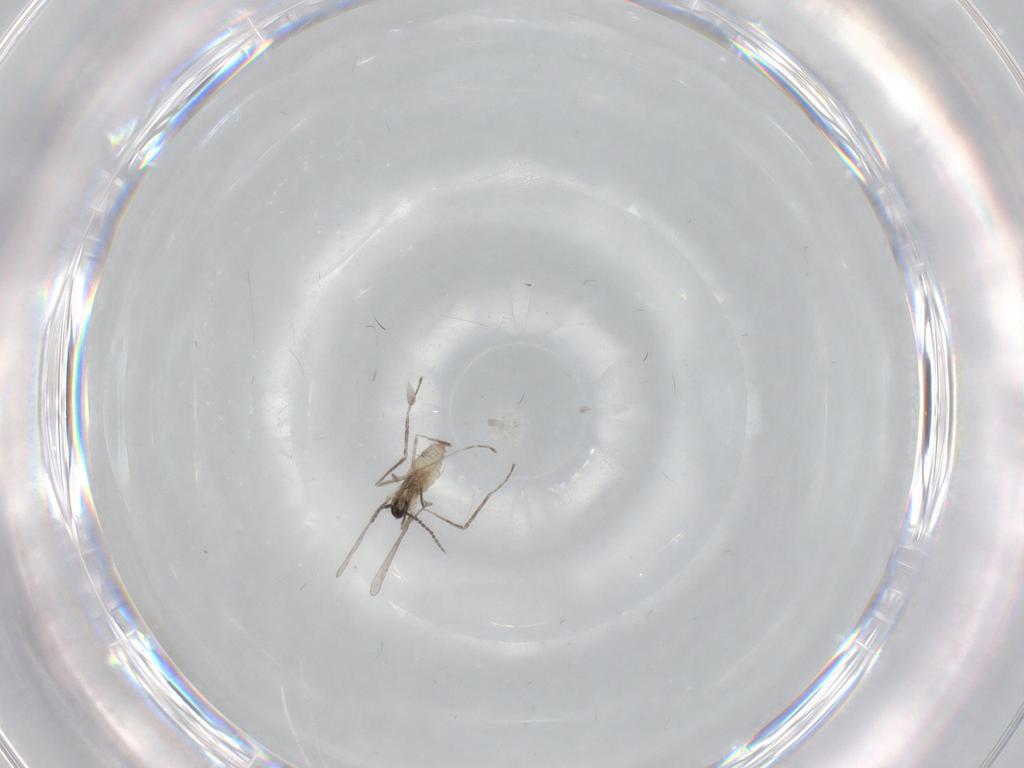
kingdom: Animalia
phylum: Arthropoda
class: Insecta
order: Diptera
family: Cecidomyiidae
